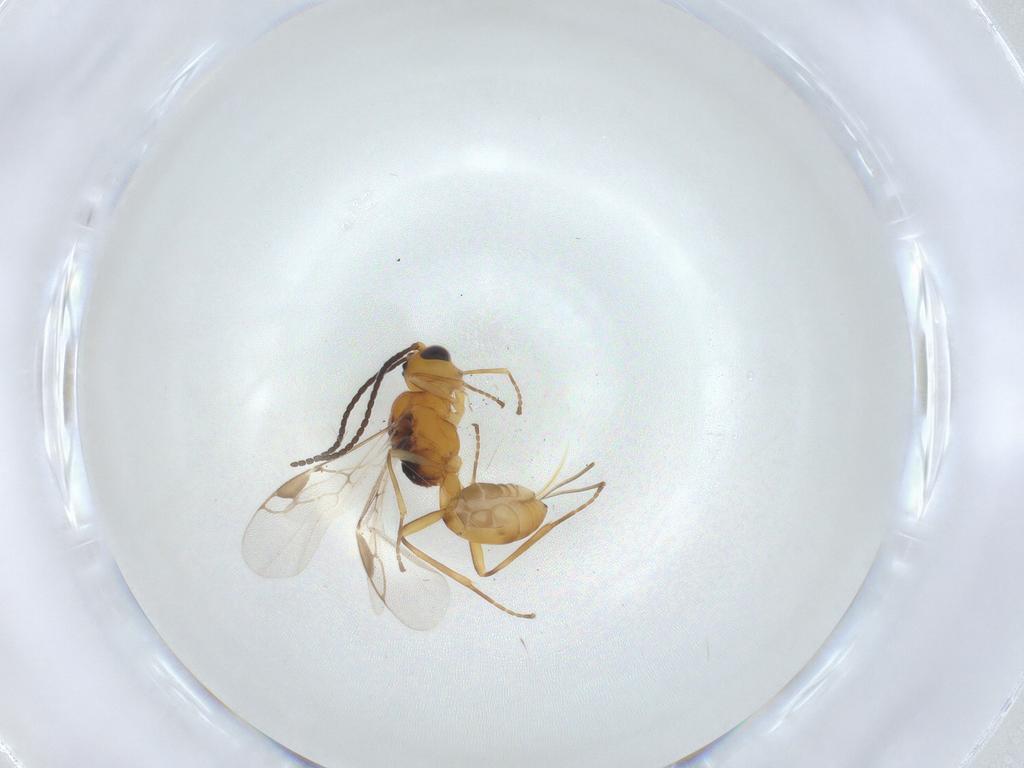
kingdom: Animalia
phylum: Arthropoda
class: Insecta
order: Hymenoptera
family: Braconidae
